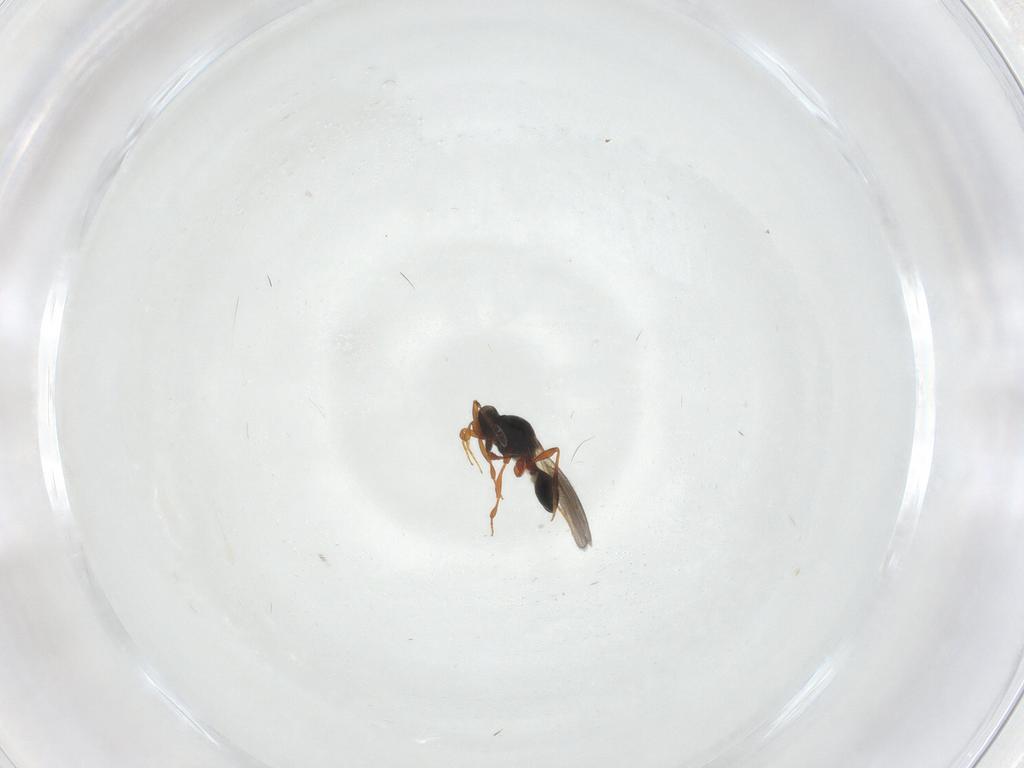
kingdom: Animalia
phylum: Arthropoda
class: Insecta
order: Hymenoptera
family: Platygastridae
